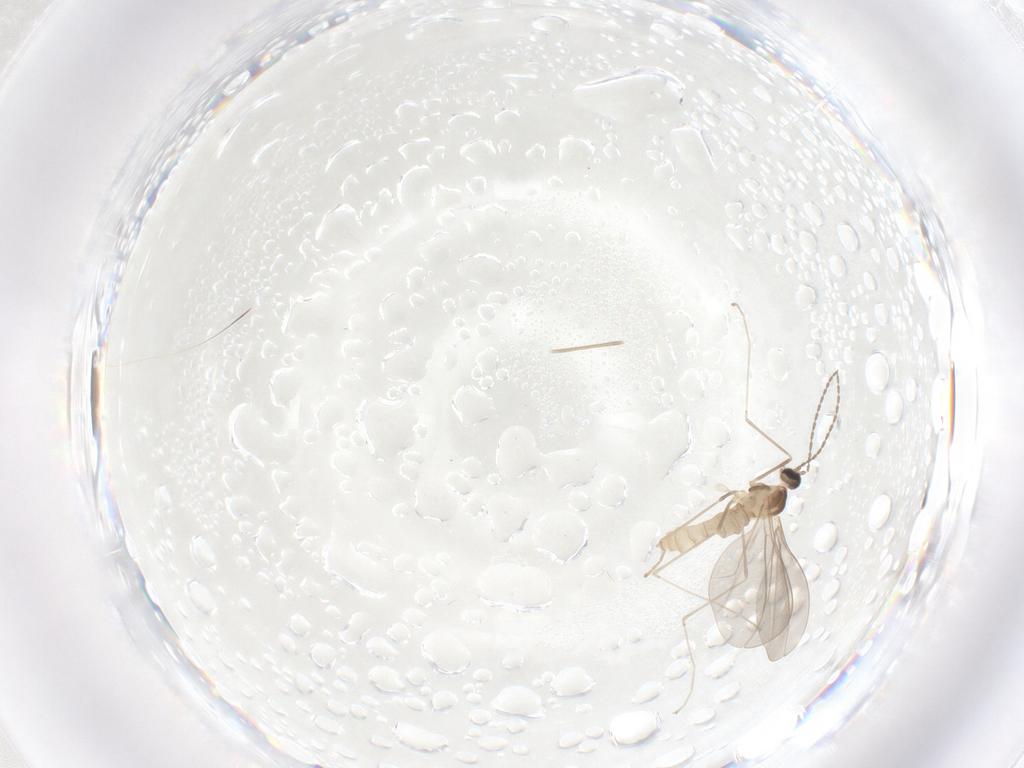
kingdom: Animalia
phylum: Arthropoda
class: Insecta
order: Diptera
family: Cecidomyiidae
